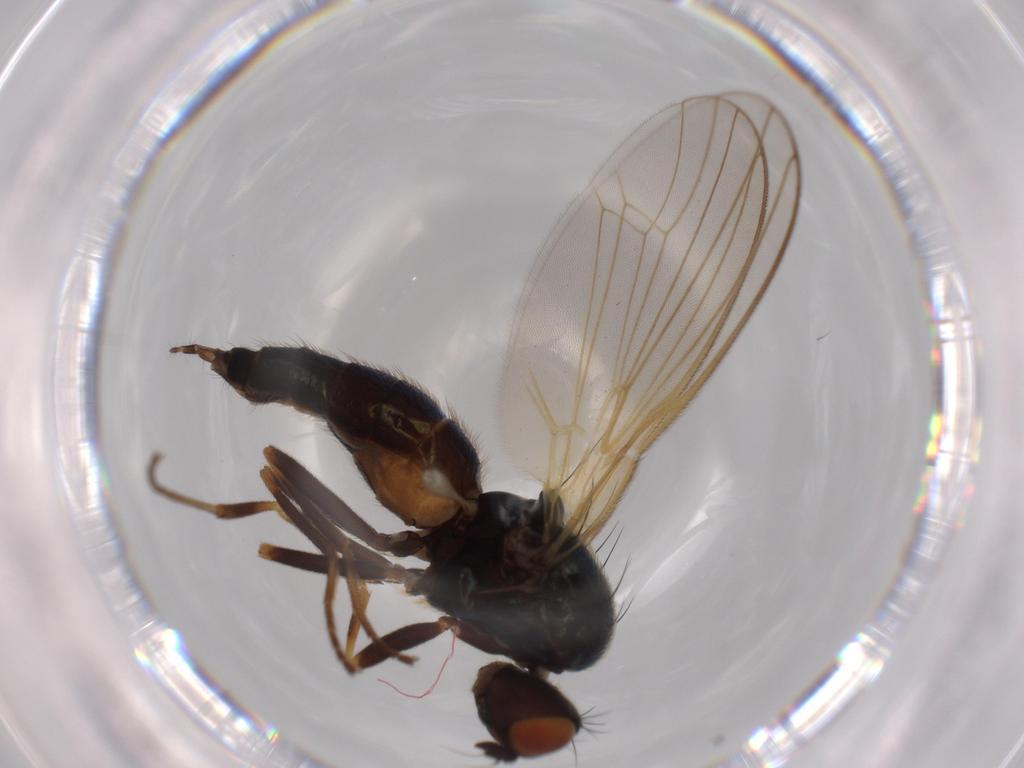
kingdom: Animalia
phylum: Arthropoda
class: Insecta
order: Diptera
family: Psilidae
